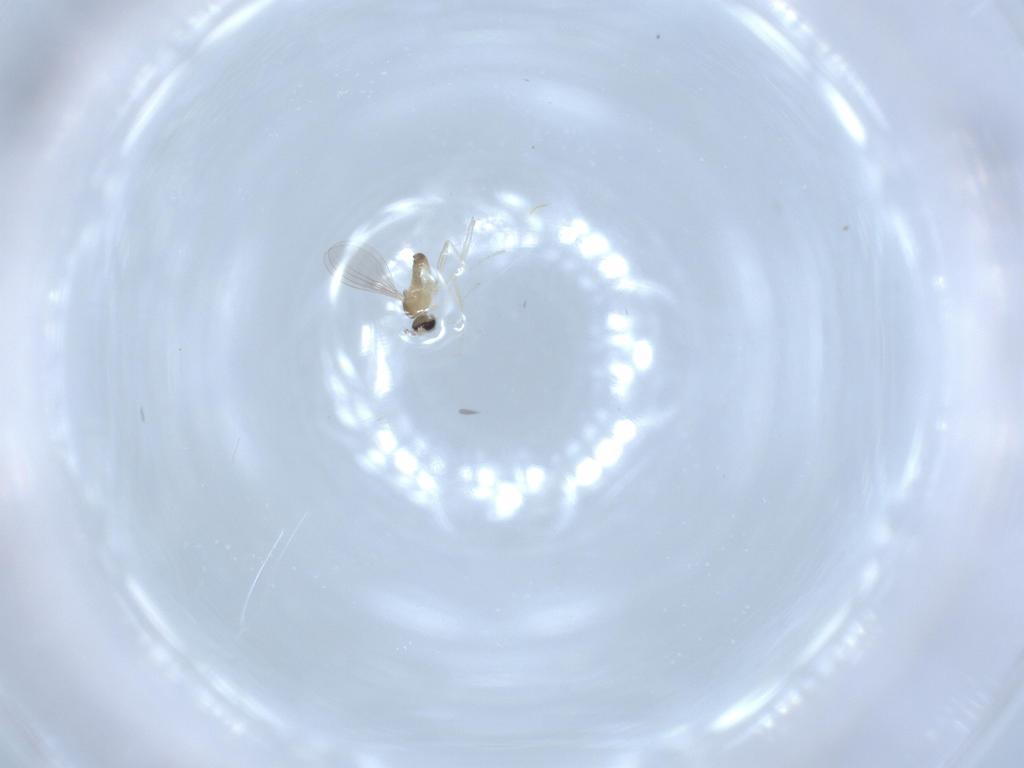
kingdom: Animalia
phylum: Arthropoda
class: Insecta
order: Diptera
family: Cecidomyiidae
